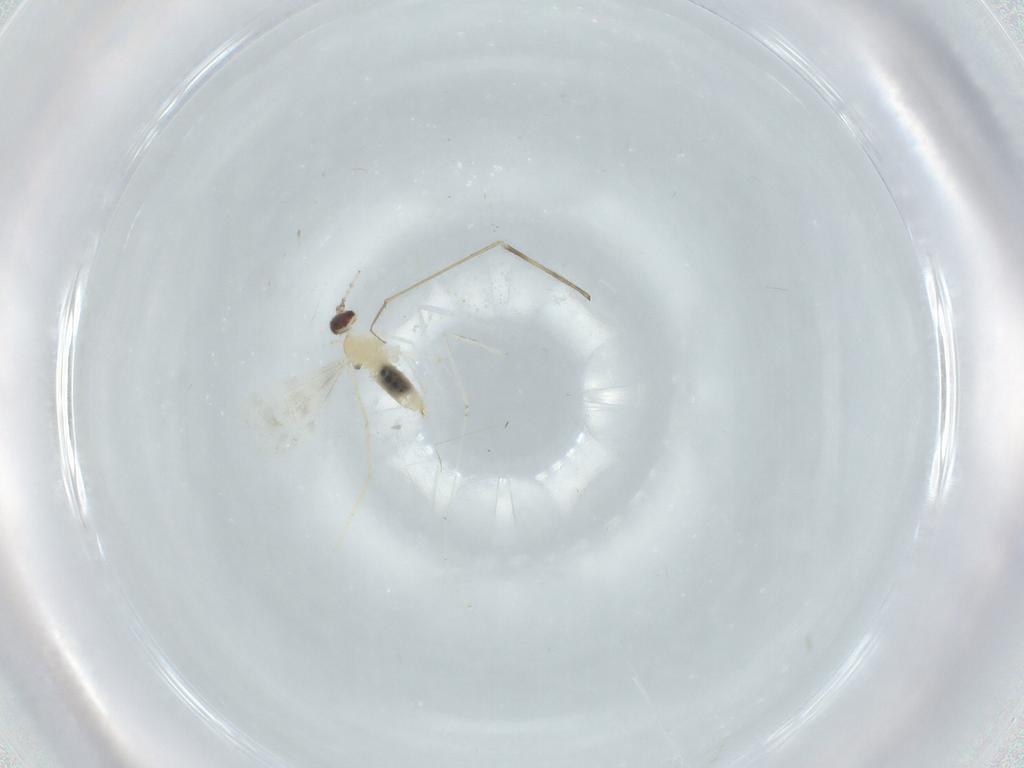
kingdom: Animalia
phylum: Arthropoda
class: Insecta
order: Diptera
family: Cecidomyiidae
